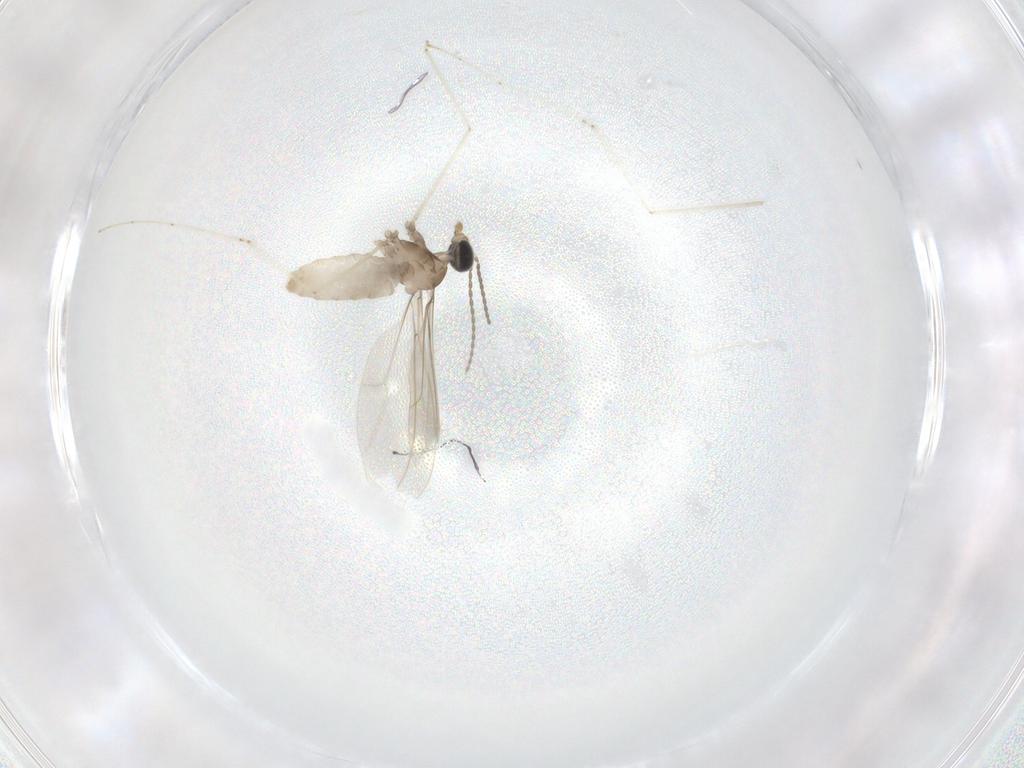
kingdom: Animalia
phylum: Arthropoda
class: Insecta
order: Diptera
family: Cecidomyiidae
